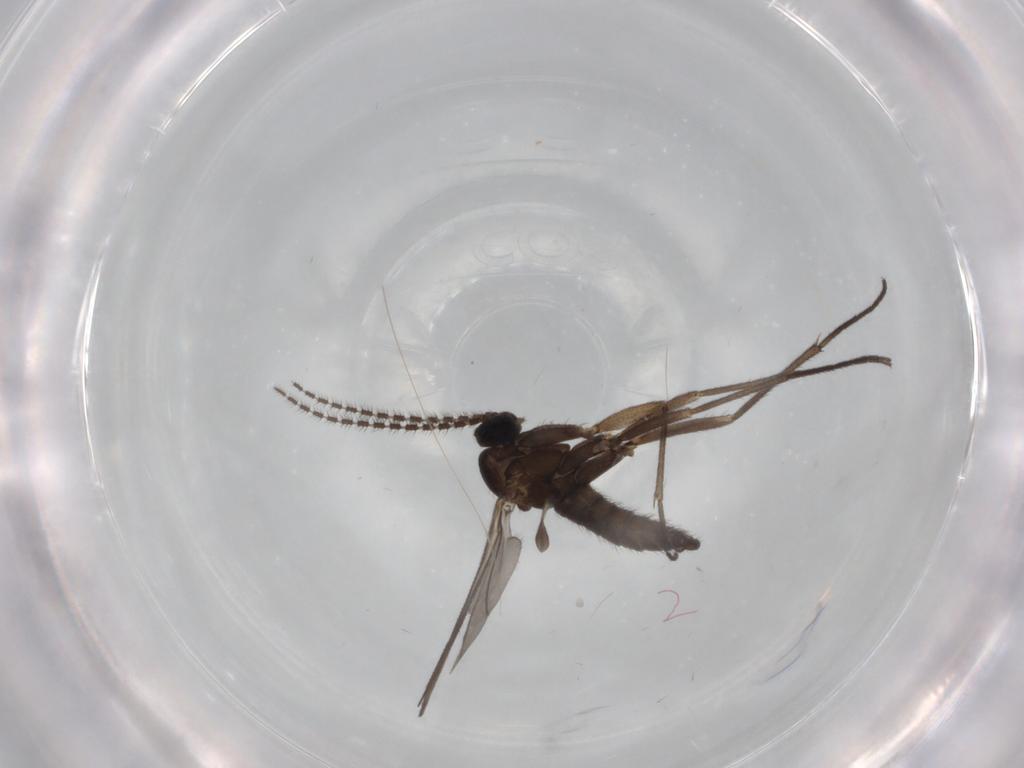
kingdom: Animalia
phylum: Arthropoda
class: Insecta
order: Diptera
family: Sciaridae
